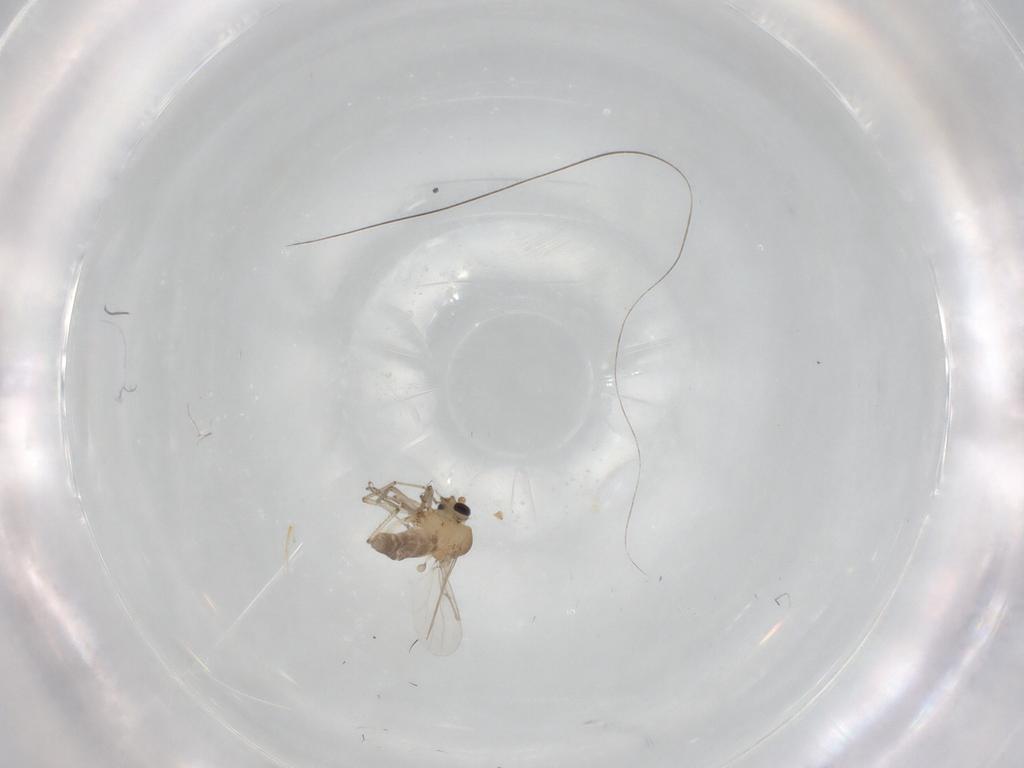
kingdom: Animalia
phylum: Arthropoda
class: Insecta
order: Diptera
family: Ceratopogonidae
